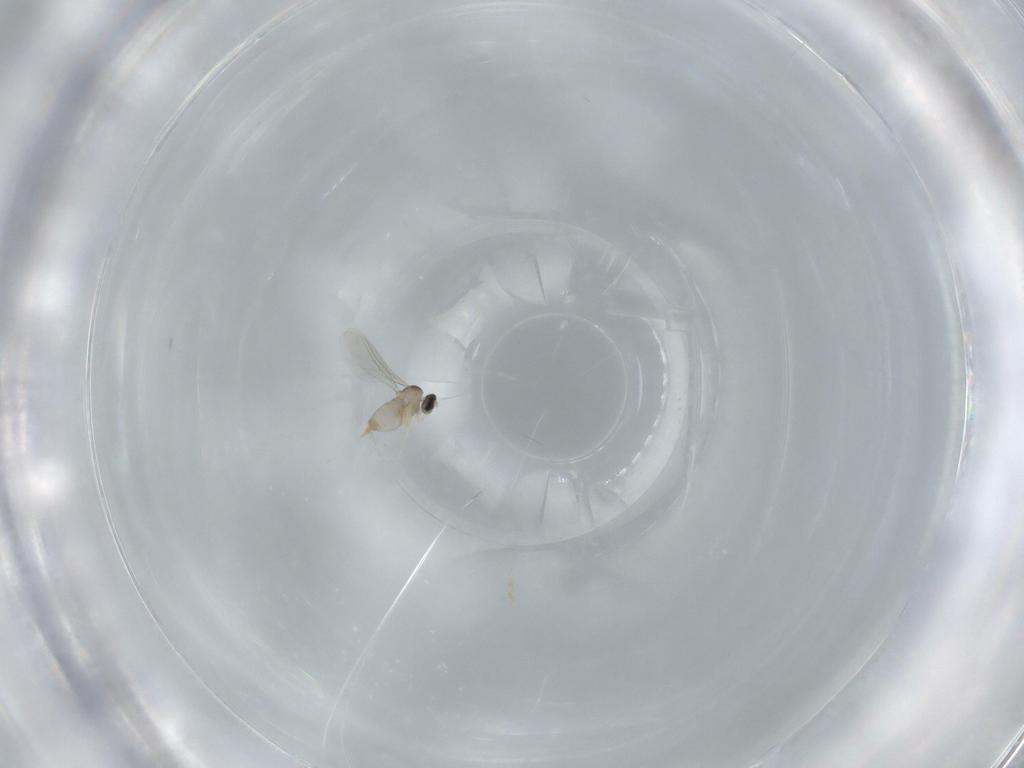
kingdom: Animalia
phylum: Arthropoda
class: Insecta
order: Diptera
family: Cecidomyiidae
